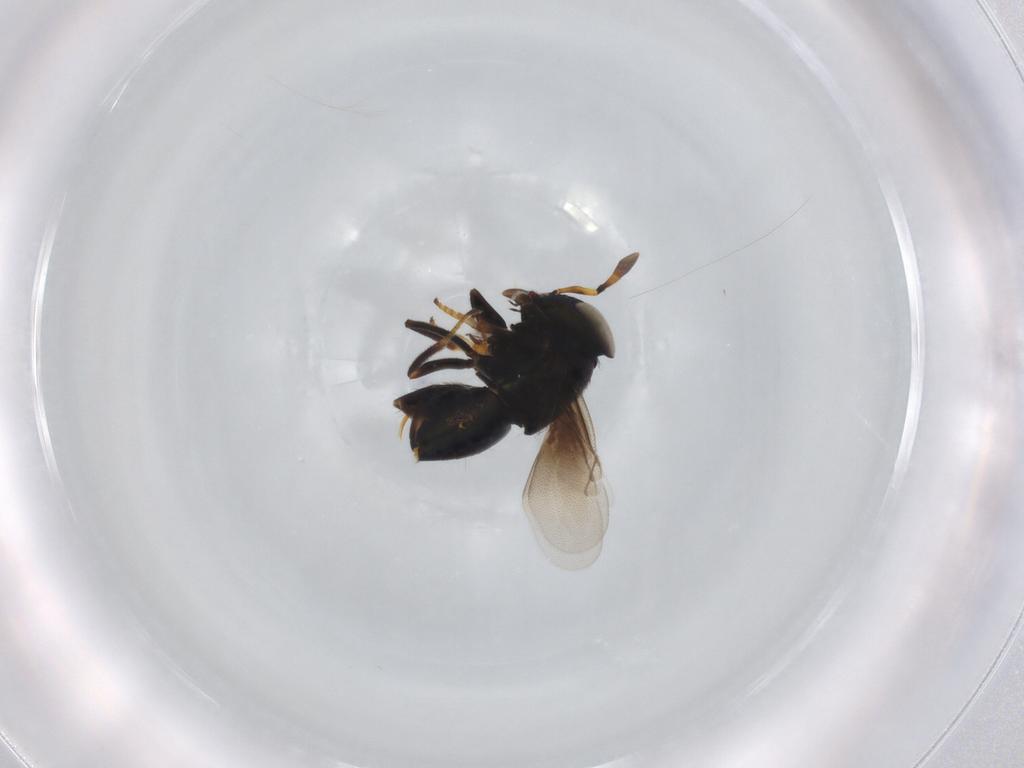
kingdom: Animalia
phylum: Arthropoda
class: Insecta
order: Hymenoptera
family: Encyrtidae
